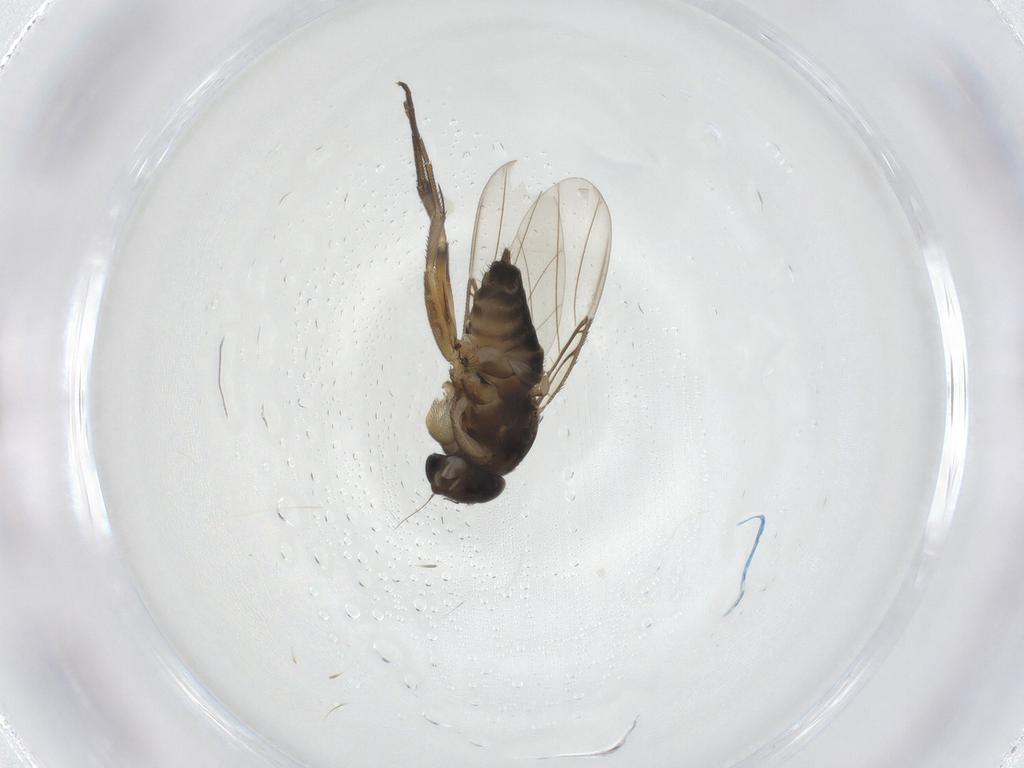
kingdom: Animalia
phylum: Arthropoda
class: Insecta
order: Diptera
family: Phoridae
